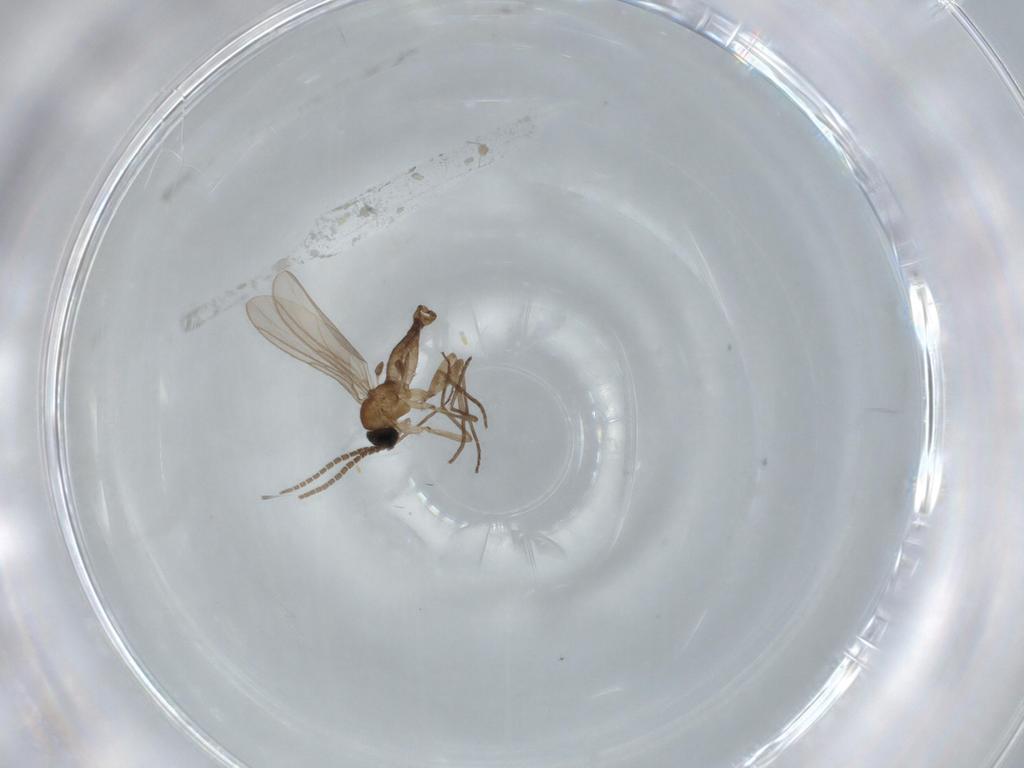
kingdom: Animalia
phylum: Arthropoda
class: Insecta
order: Diptera
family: Sciaridae
